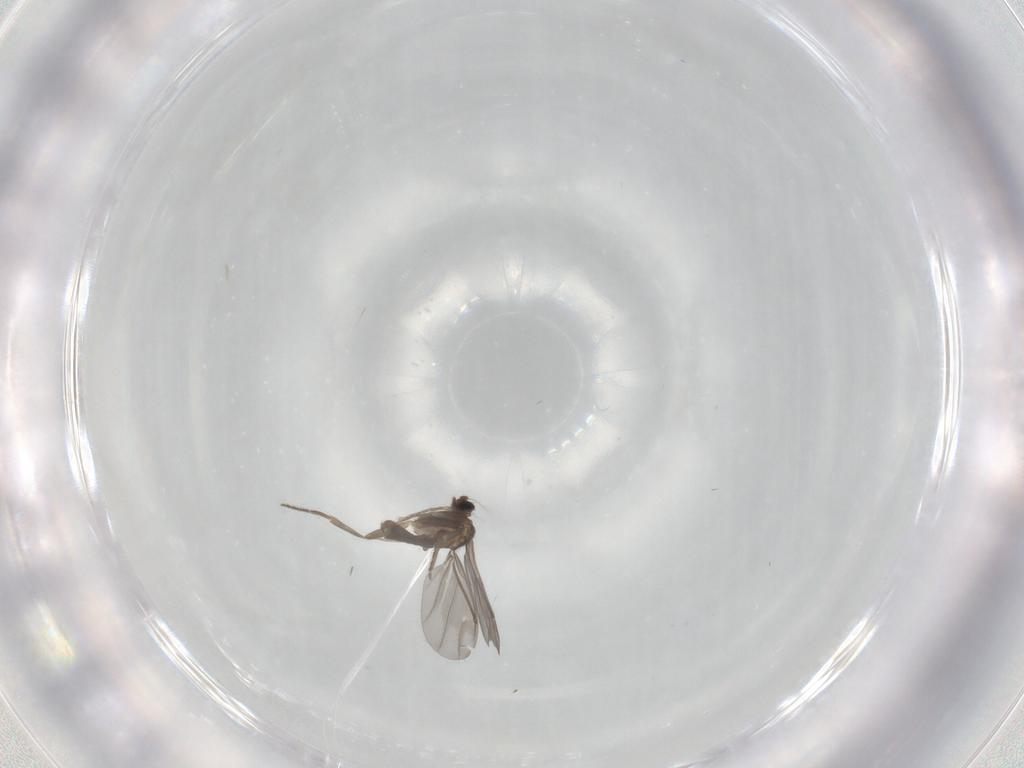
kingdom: Animalia
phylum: Arthropoda
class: Insecta
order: Diptera
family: Phoridae
